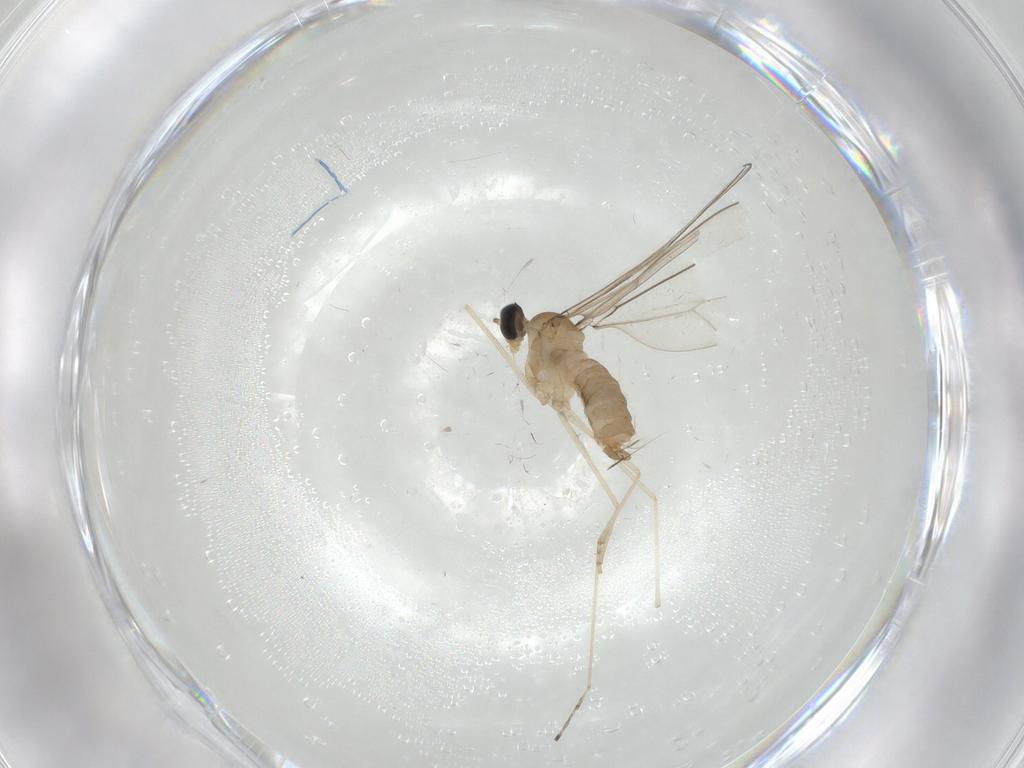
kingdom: Animalia
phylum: Arthropoda
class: Insecta
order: Diptera
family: Cecidomyiidae
